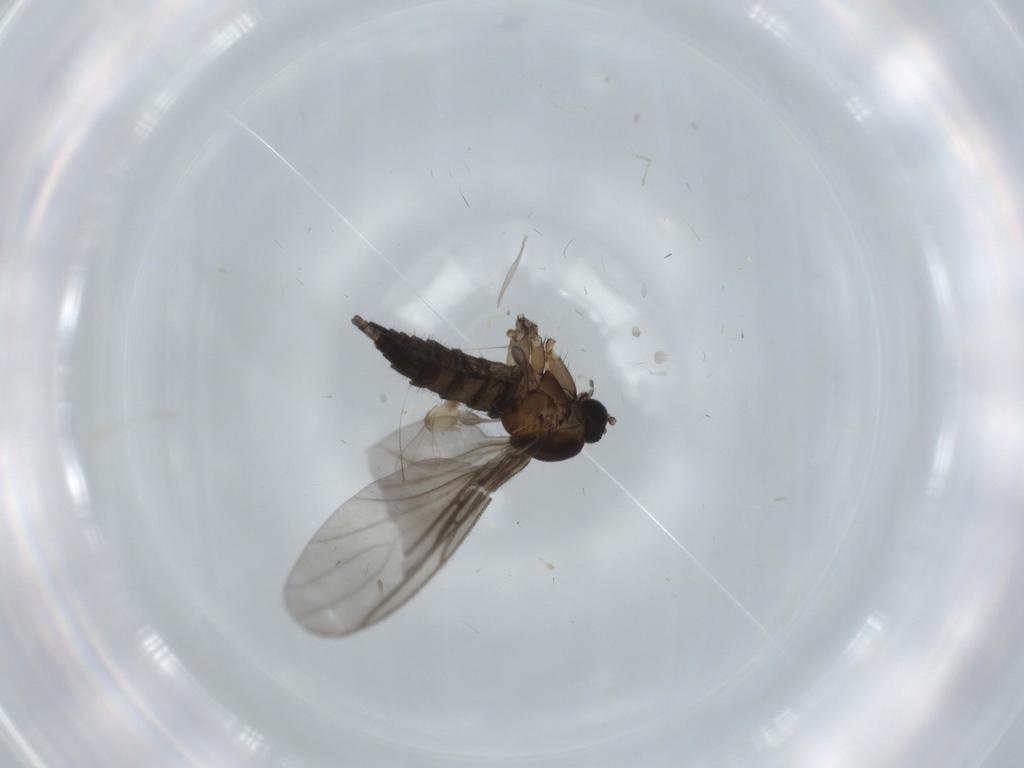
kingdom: Animalia
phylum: Arthropoda
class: Insecta
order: Diptera
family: Cecidomyiidae
